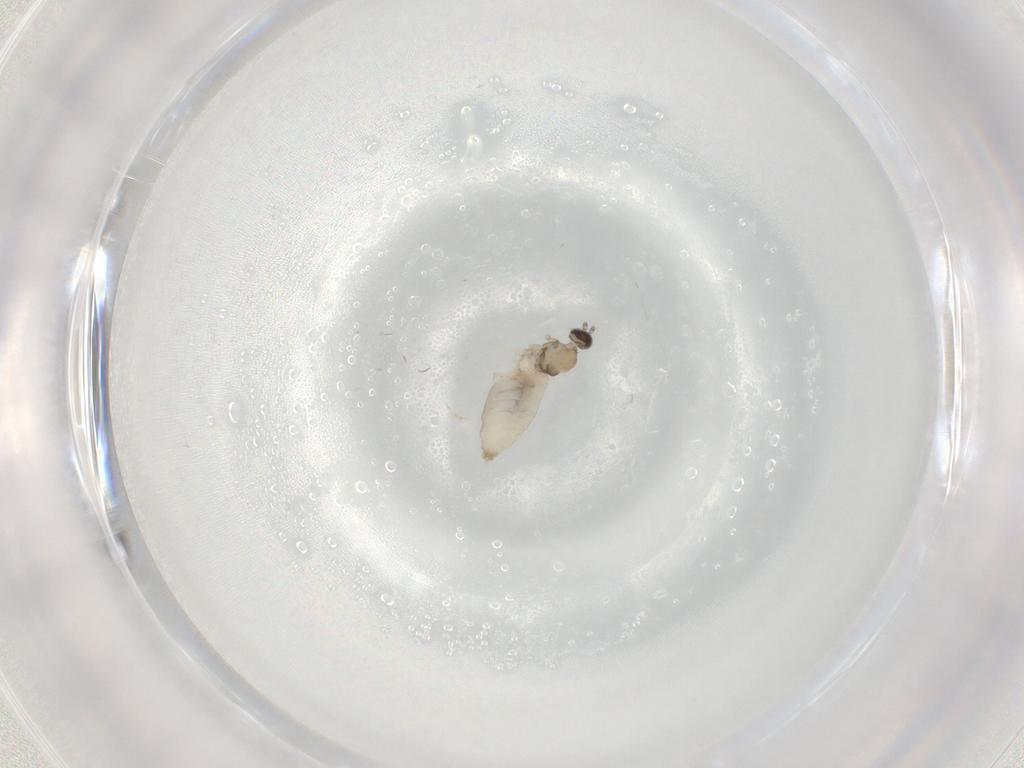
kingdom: Animalia
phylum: Arthropoda
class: Insecta
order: Diptera
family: Cecidomyiidae
